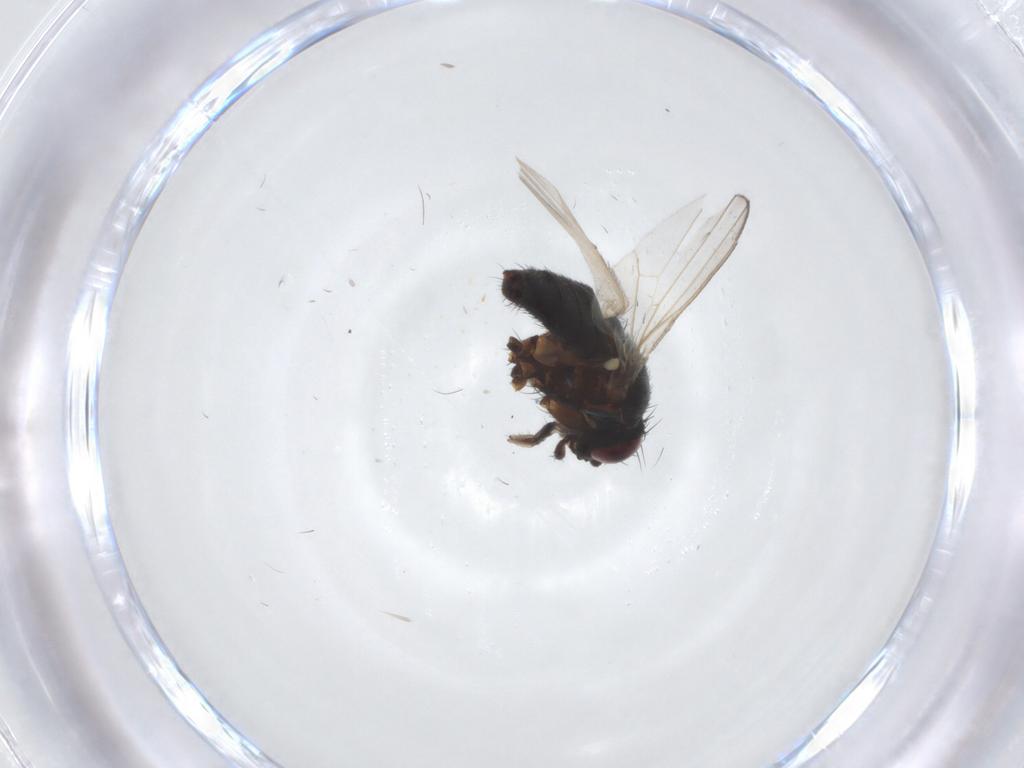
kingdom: Animalia
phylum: Arthropoda
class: Insecta
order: Diptera
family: Milichiidae
